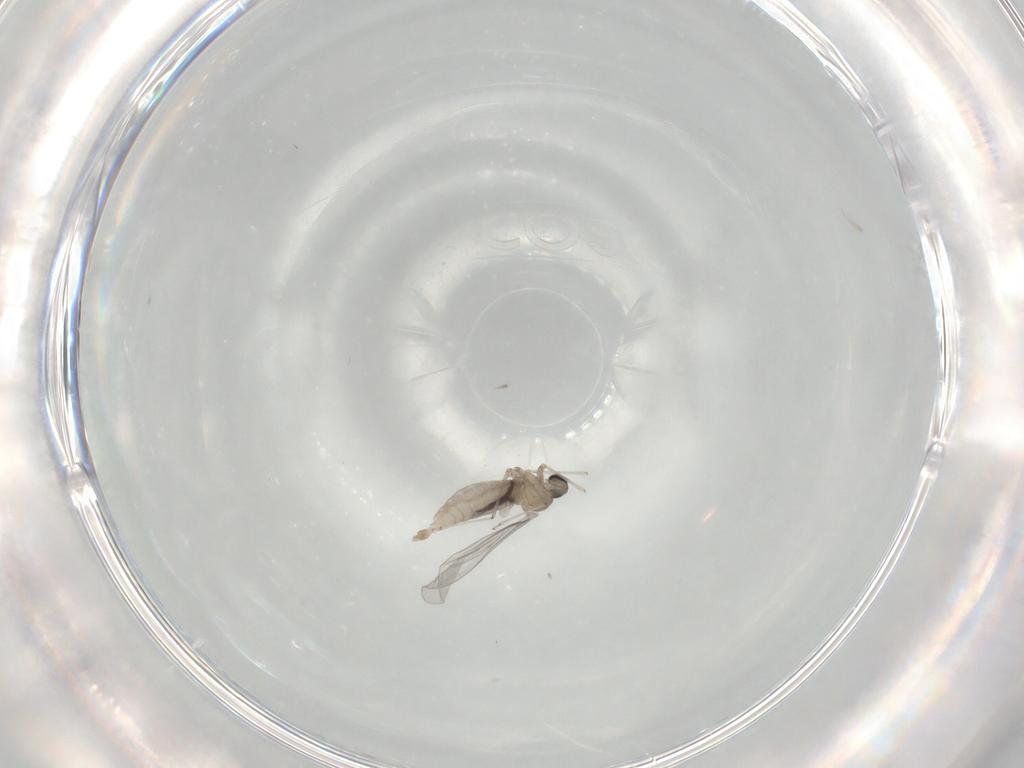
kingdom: Animalia
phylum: Arthropoda
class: Insecta
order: Diptera
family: Cecidomyiidae
